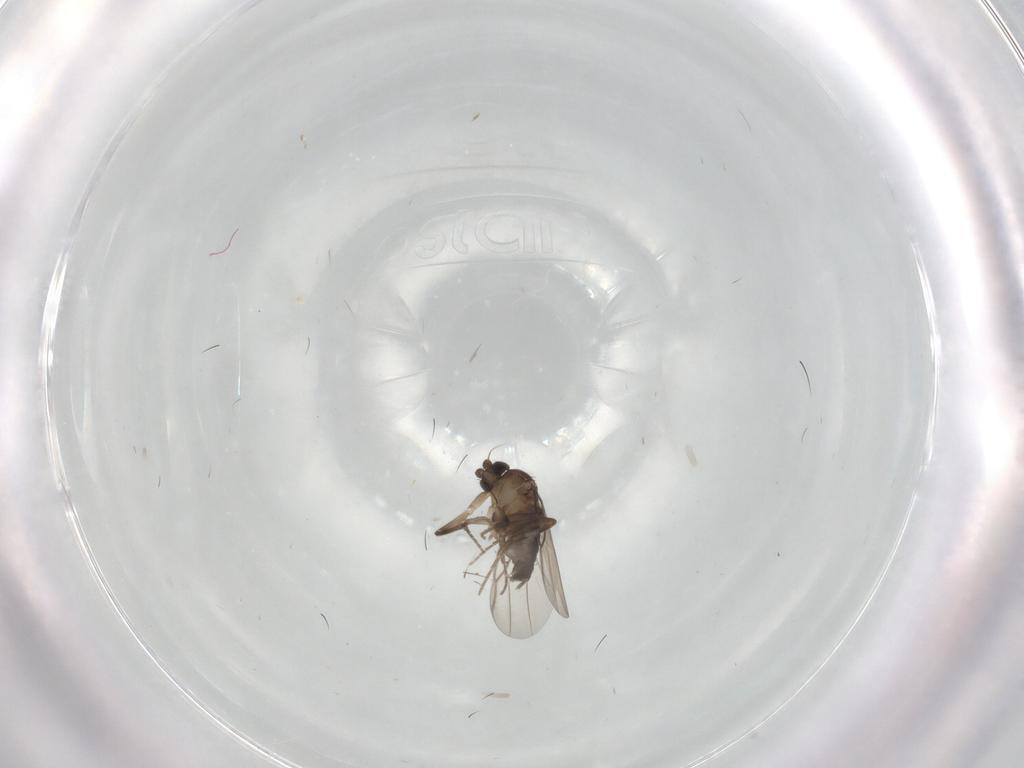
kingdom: Animalia
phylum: Arthropoda
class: Insecta
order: Diptera
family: Phoridae
